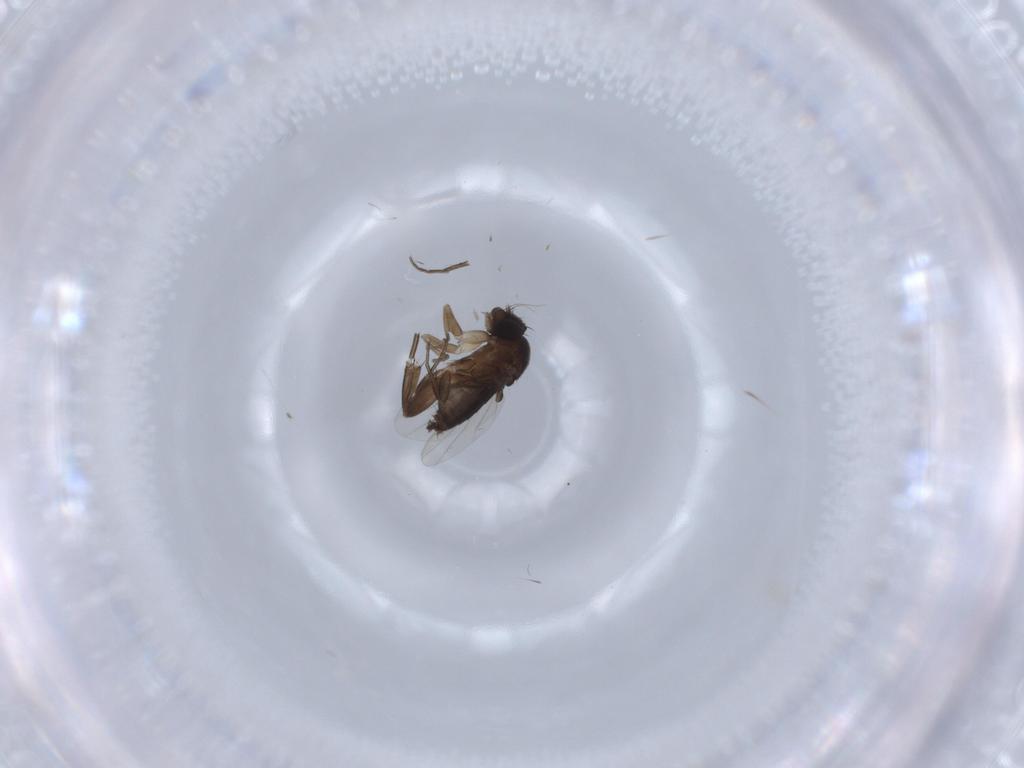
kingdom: Animalia
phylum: Arthropoda
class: Insecta
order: Diptera
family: Phoridae
